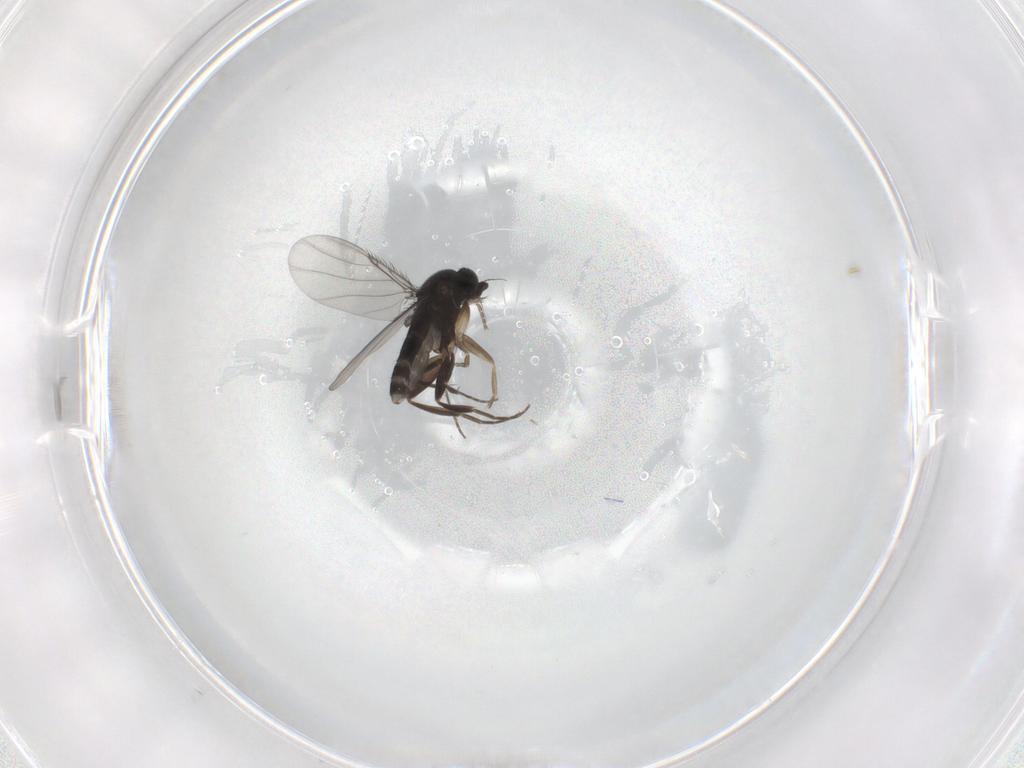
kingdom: Animalia
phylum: Arthropoda
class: Insecta
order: Diptera
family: Phoridae
